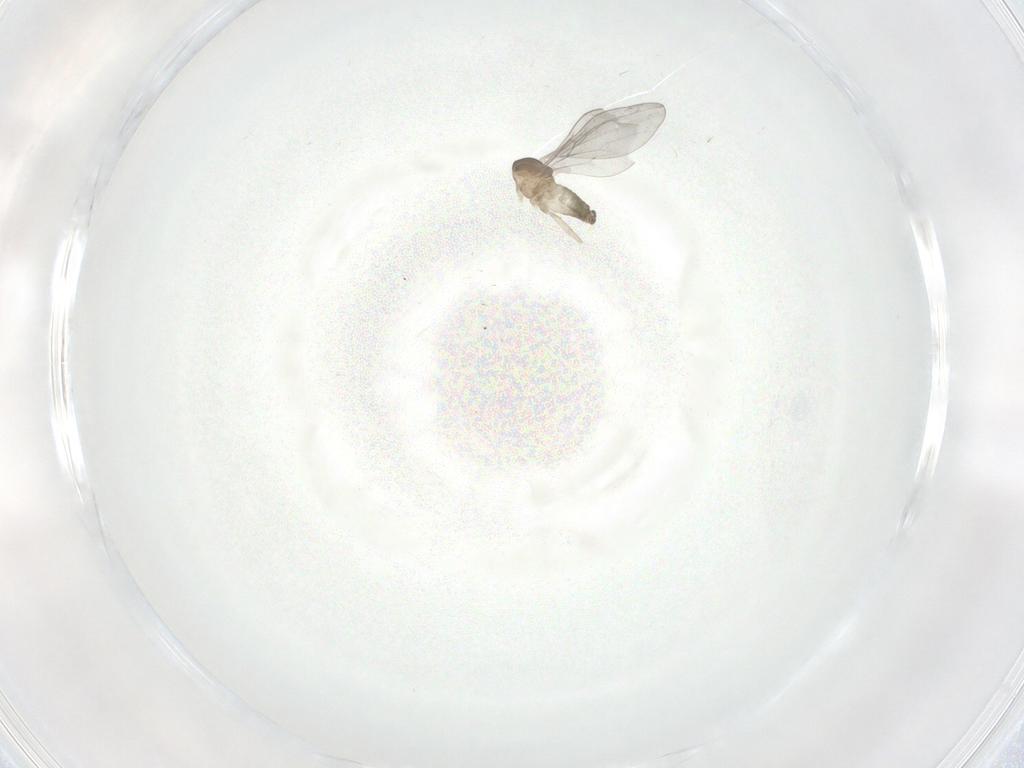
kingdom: Animalia
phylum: Arthropoda
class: Insecta
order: Diptera
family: Cecidomyiidae
